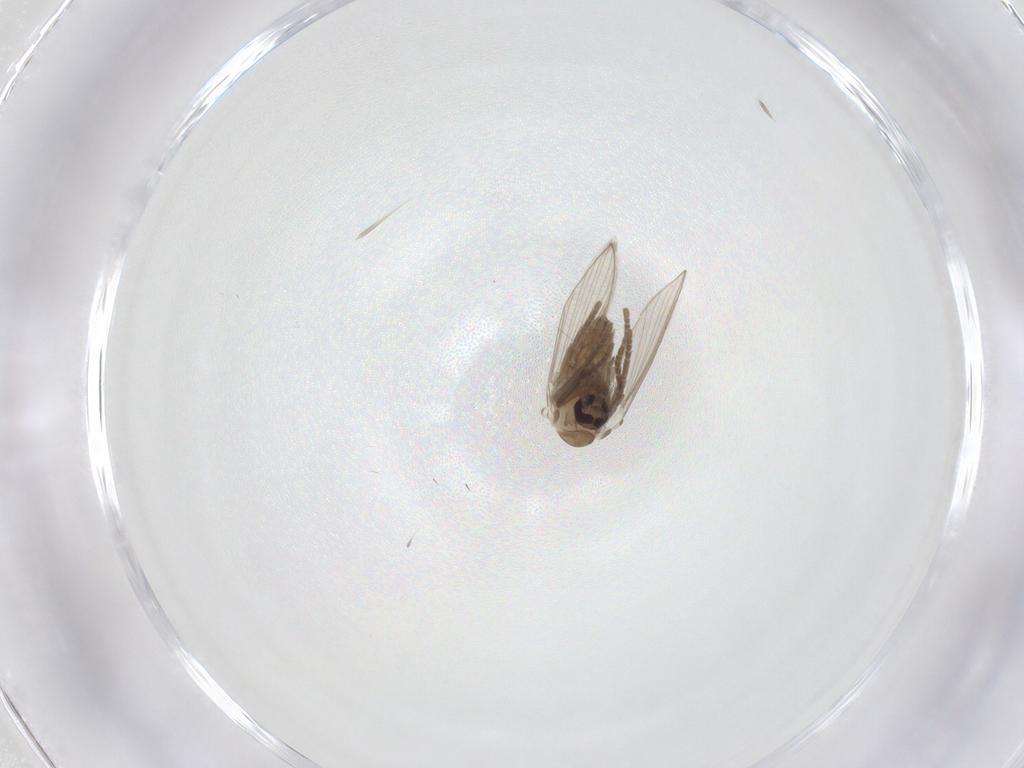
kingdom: Animalia
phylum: Arthropoda
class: Insecta
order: Diptera
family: Psychodidae
